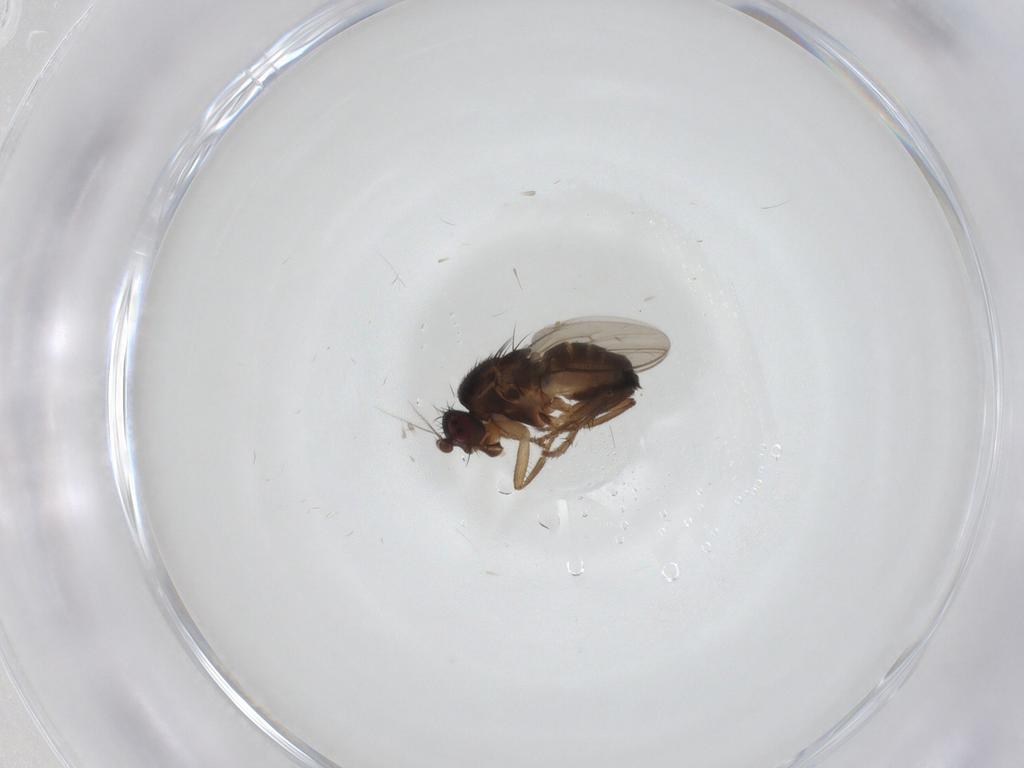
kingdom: Animalia
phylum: Arthropoda
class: Insecta
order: Diptera
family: Sphaeroceridae
